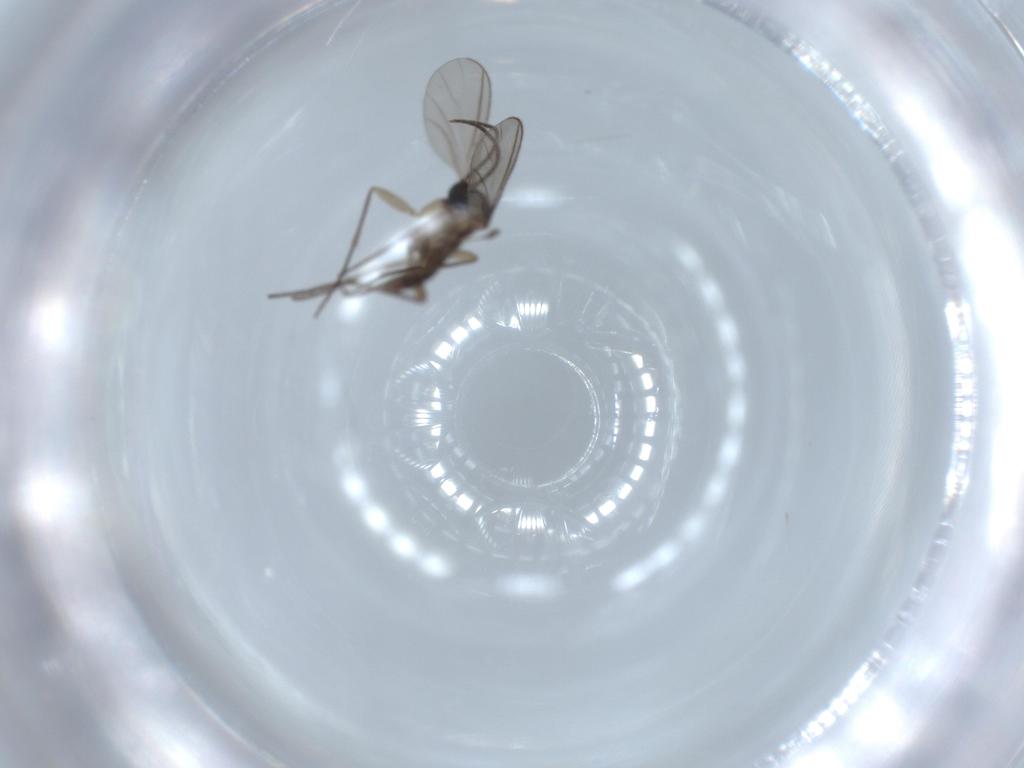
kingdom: Animalia
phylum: Arthropoda
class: Insecta
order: Diptera
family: Sciaridae
